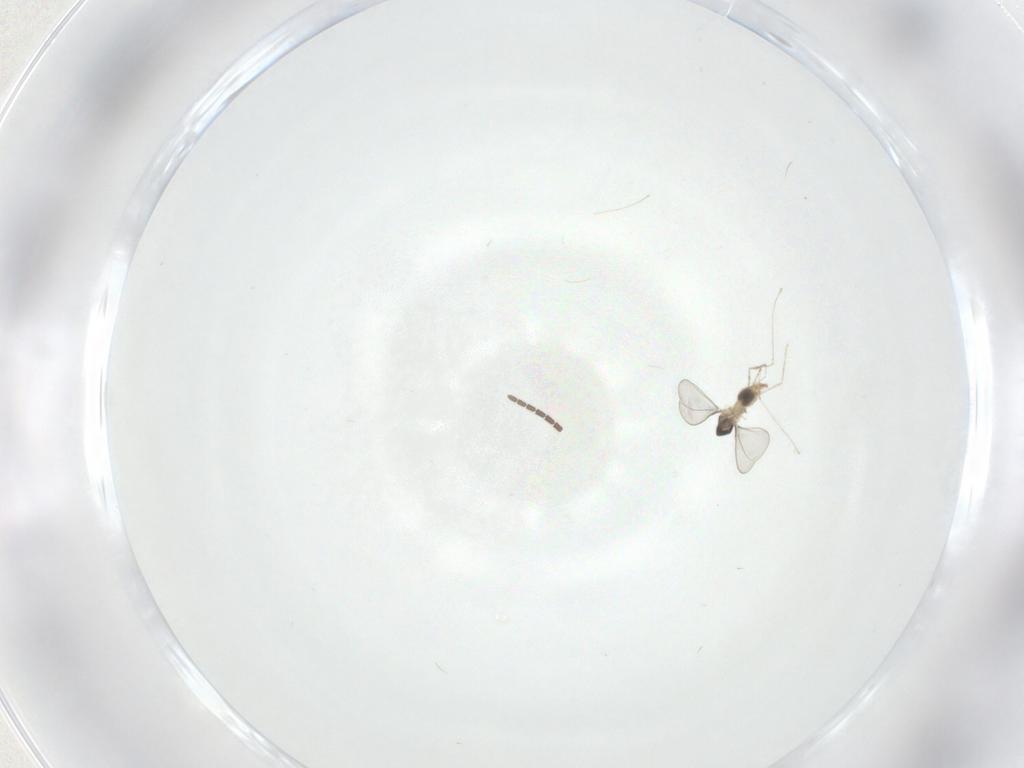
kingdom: Animalia
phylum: Arthropoda
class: Insecta
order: Diptera
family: Cecidomyiidae
